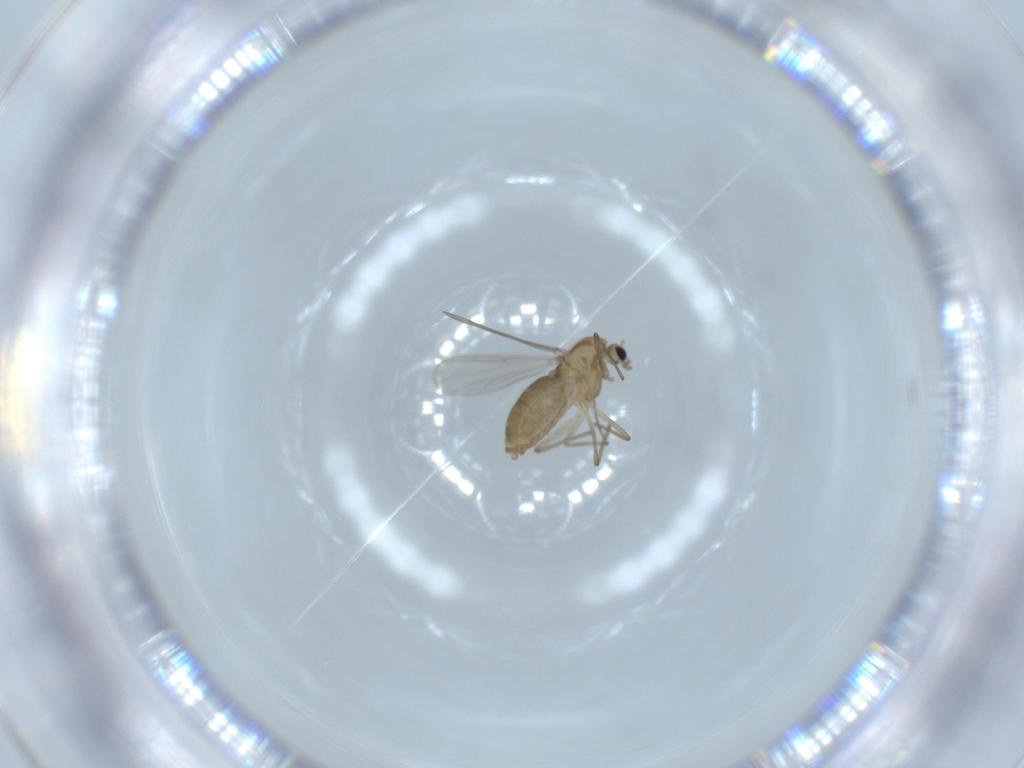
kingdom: Animalia
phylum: Arthropoda
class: Insecta
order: Diptera
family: Chironomidae
